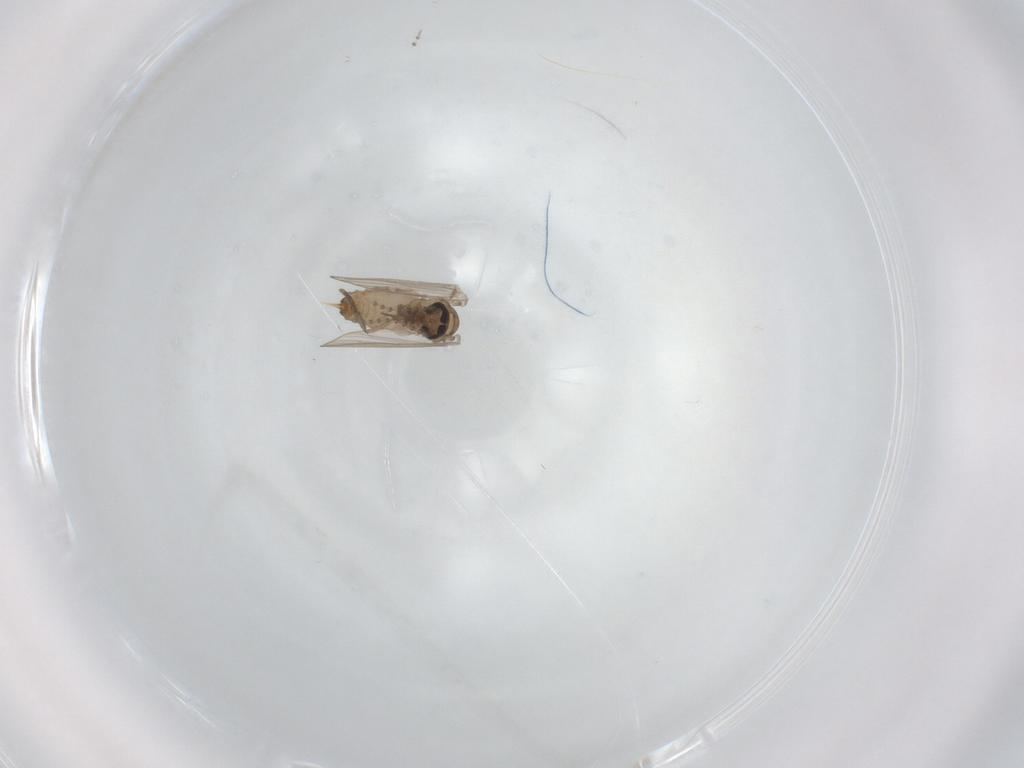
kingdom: Animalia
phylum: Arthropoda
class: Insecta
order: Diptera
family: Psychodidae
